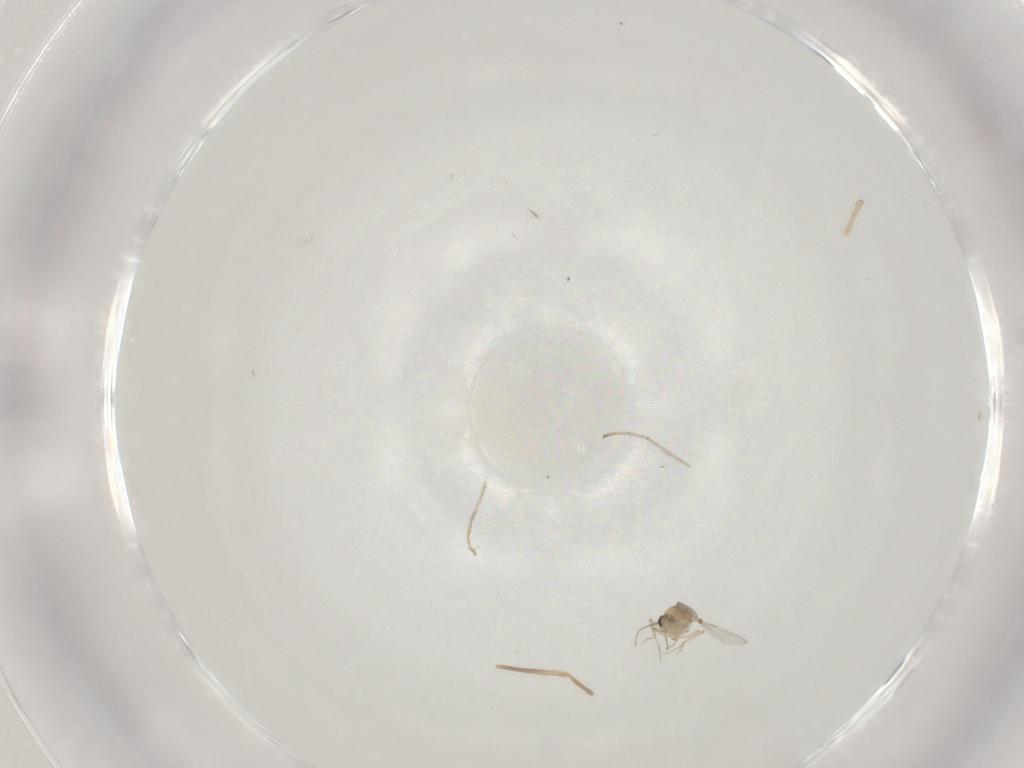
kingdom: Animalia
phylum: Arthropoda
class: Insecta
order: Diptera
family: Chironomidae
